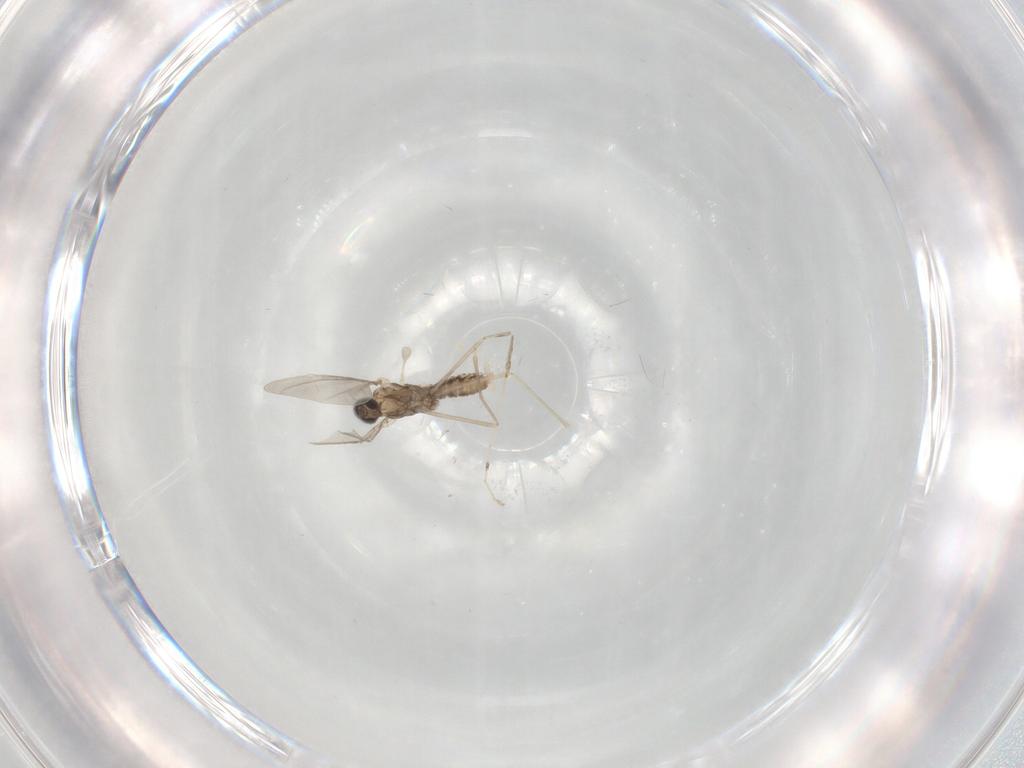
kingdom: Animalia
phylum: Arthropoda
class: Insecta
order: Diptera
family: Cecidomyiidae
